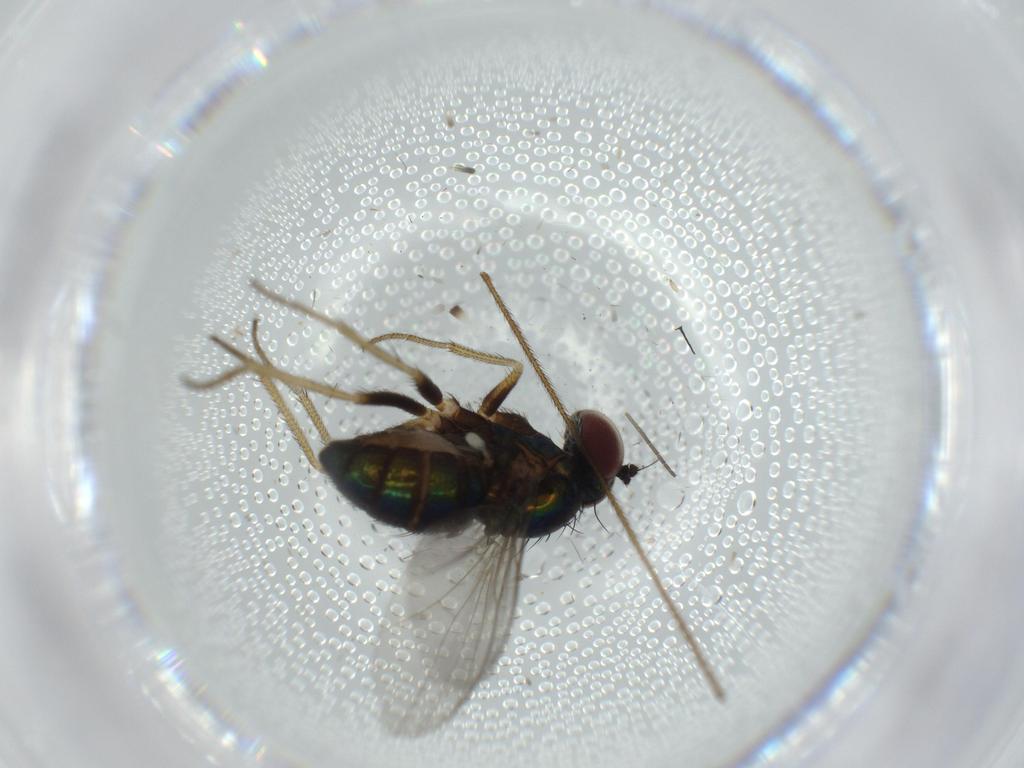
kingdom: Animalia
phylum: Arthropoda
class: Insecta
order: Diptera
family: Dolichopodidae
